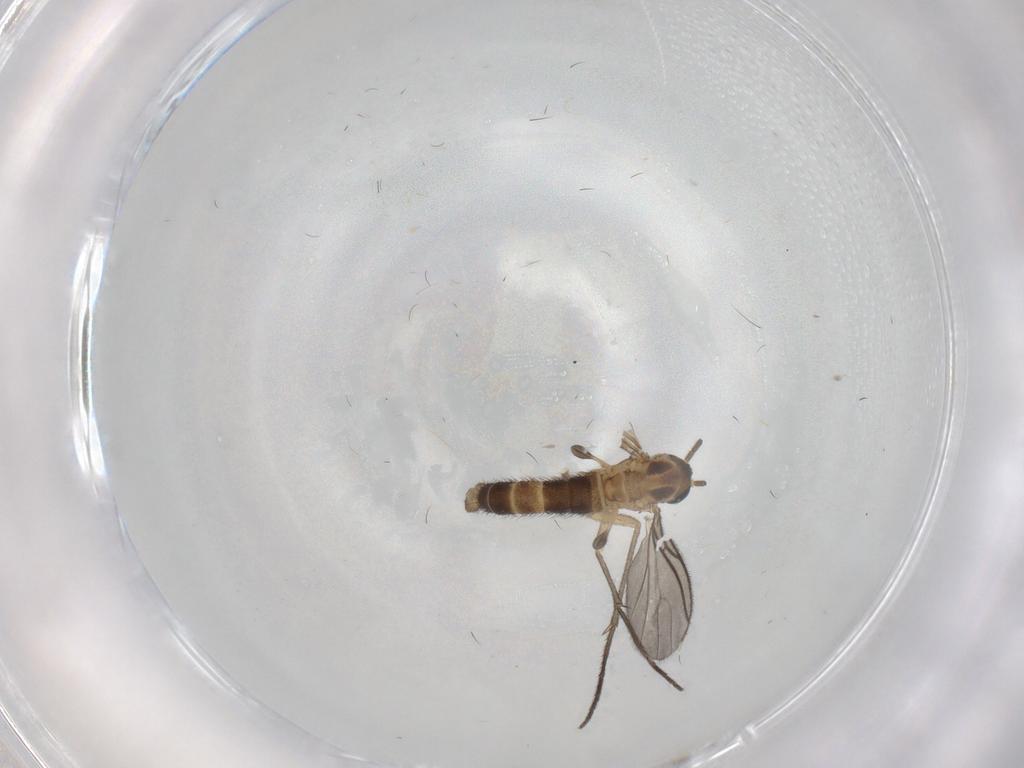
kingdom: Animalia
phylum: Arthropoda
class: Insecta
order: Diptera
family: Sciaridae
